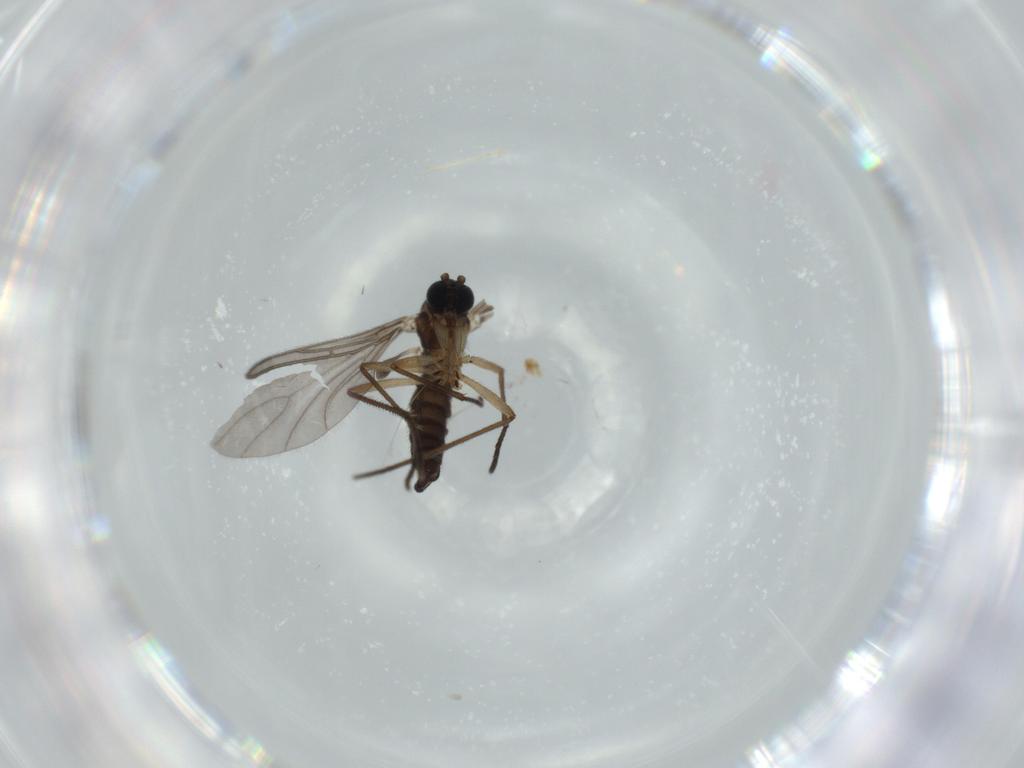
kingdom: Animalia
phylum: Arthropoda
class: Insecta
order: Diptera
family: Sciaridae
